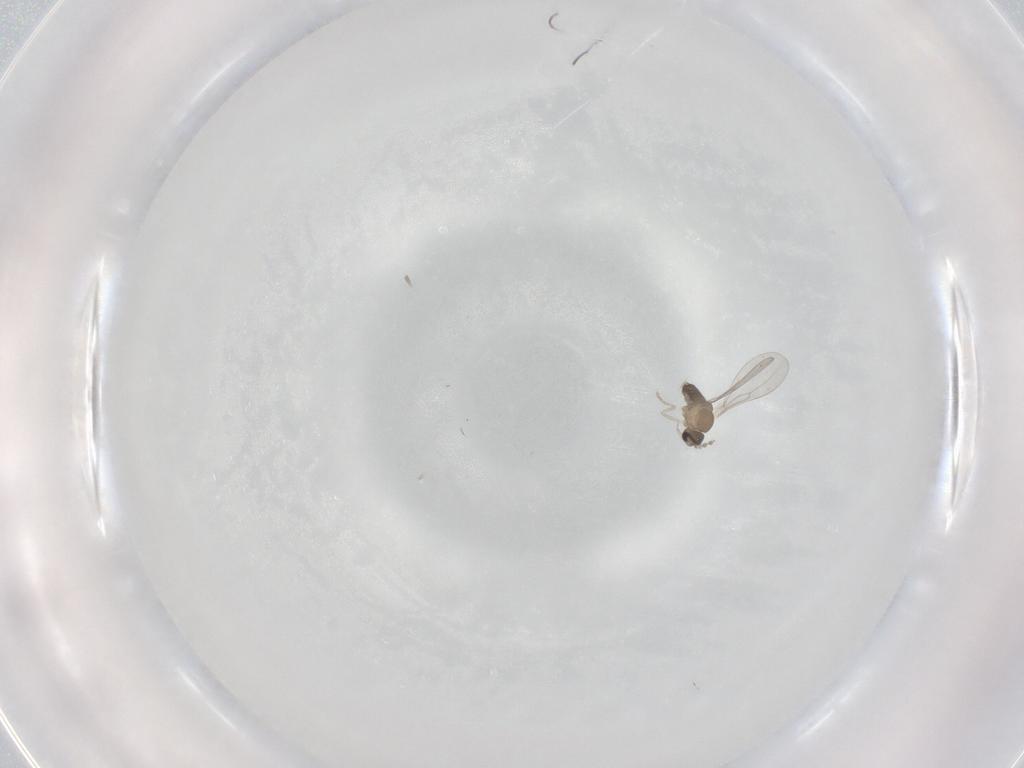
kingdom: Animalia
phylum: Arthropoda
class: Insecta
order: Diptera
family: Cecidomyiidae
